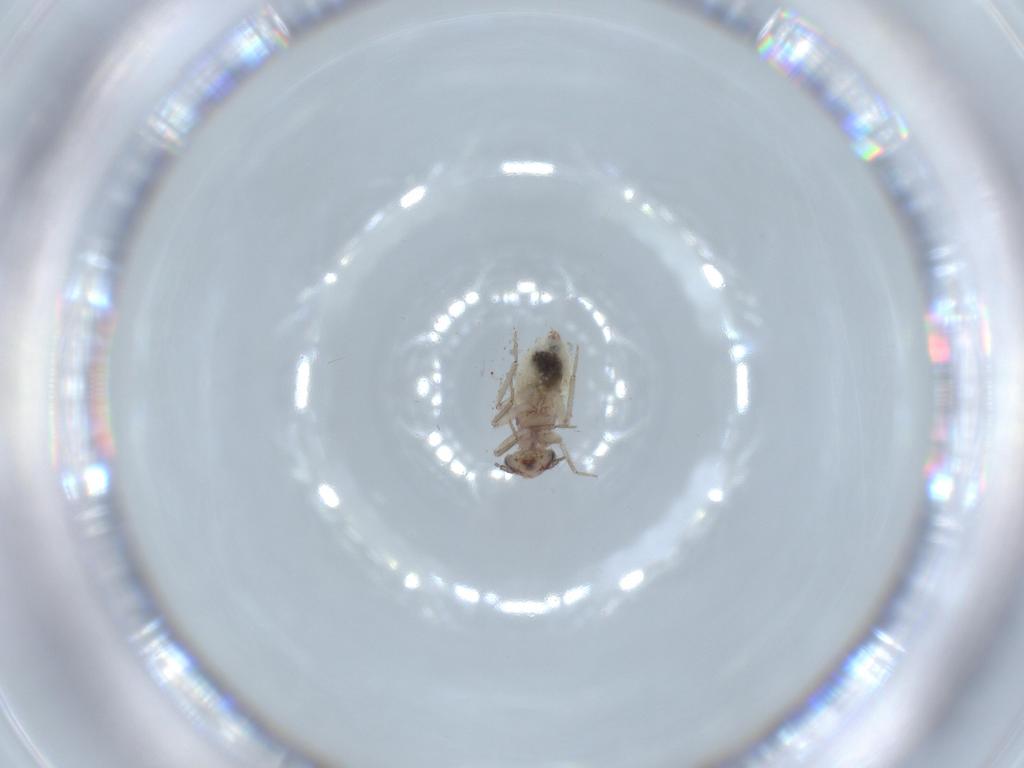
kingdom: Animalia
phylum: Arthropoda
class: Insecta
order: Psocodea
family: Lepidopsocidae
